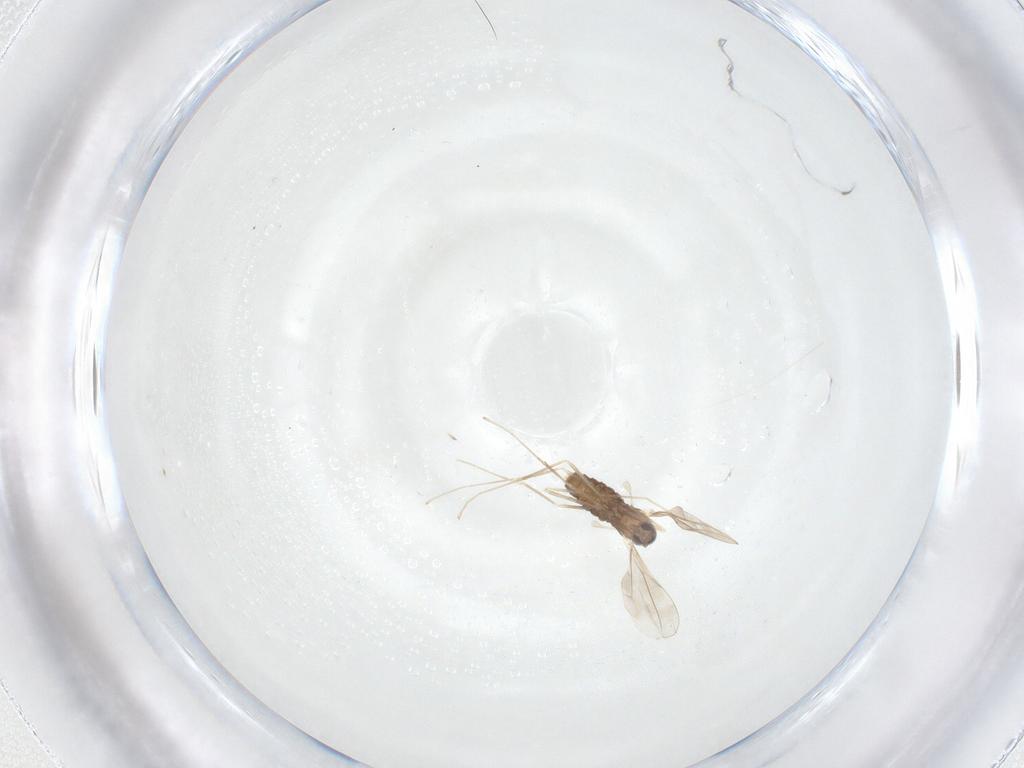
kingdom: Animalia
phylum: Arthropoda
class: Insecta
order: Diptera
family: Cecidomyiidae
